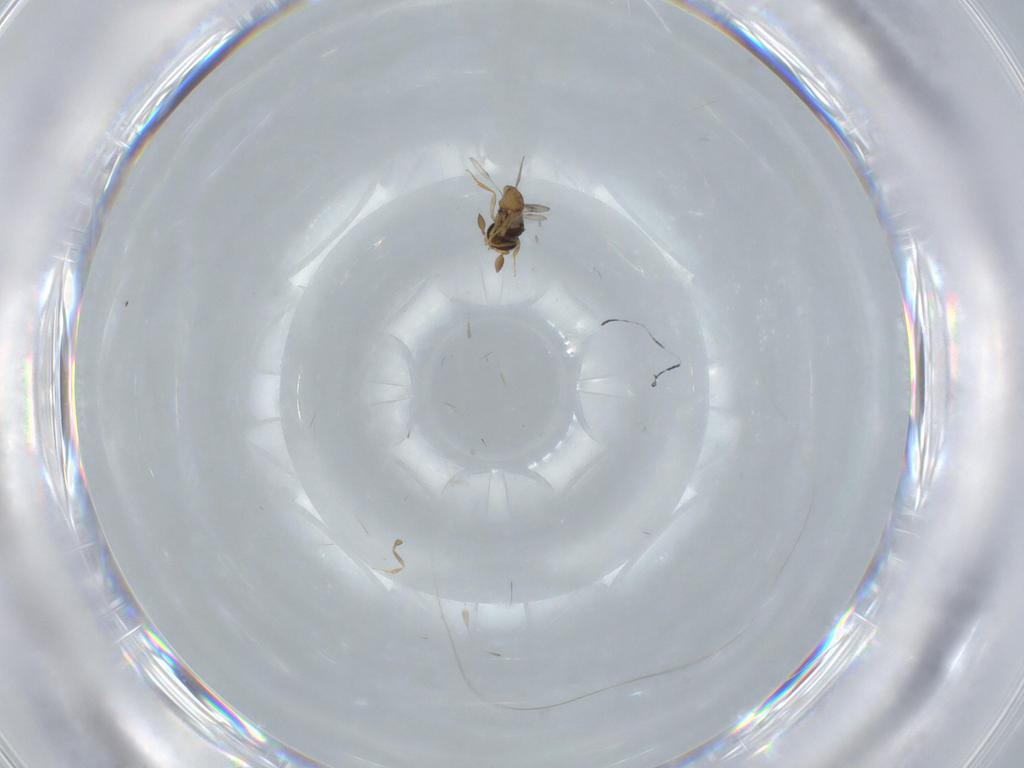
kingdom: Animalia
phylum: Arthropoda
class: Insecta
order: Hymenoptera
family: Scelionidae
